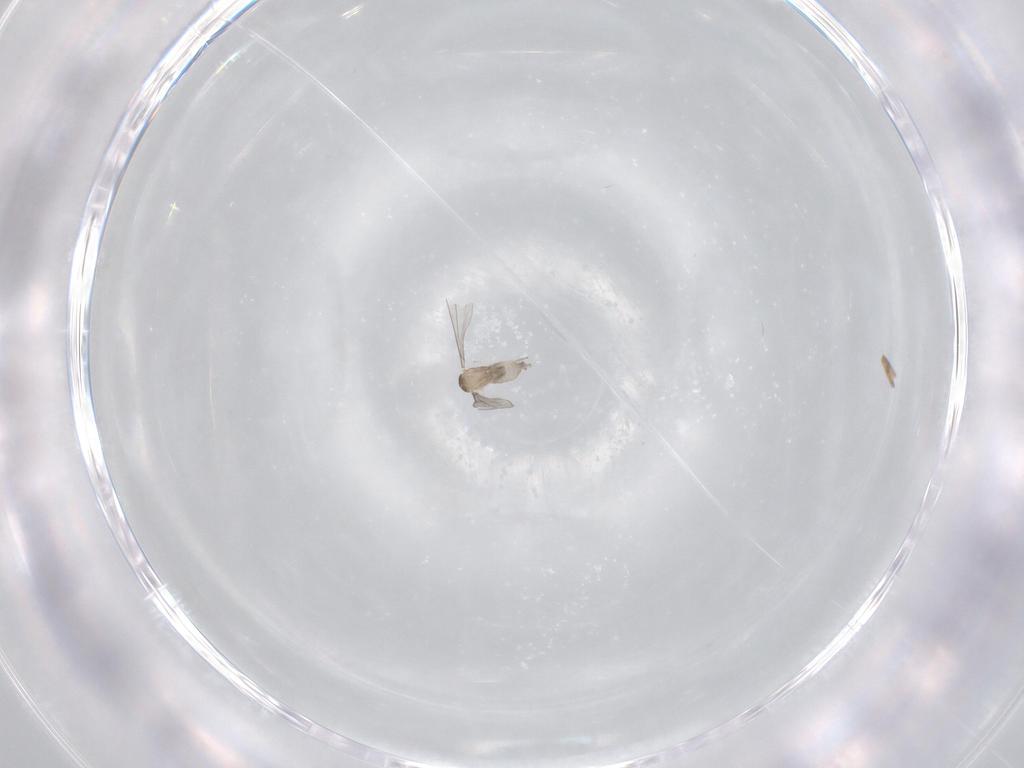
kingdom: Animalia
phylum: Arthropoda
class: Insecta
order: Diptera
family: Cecidomyiidae
